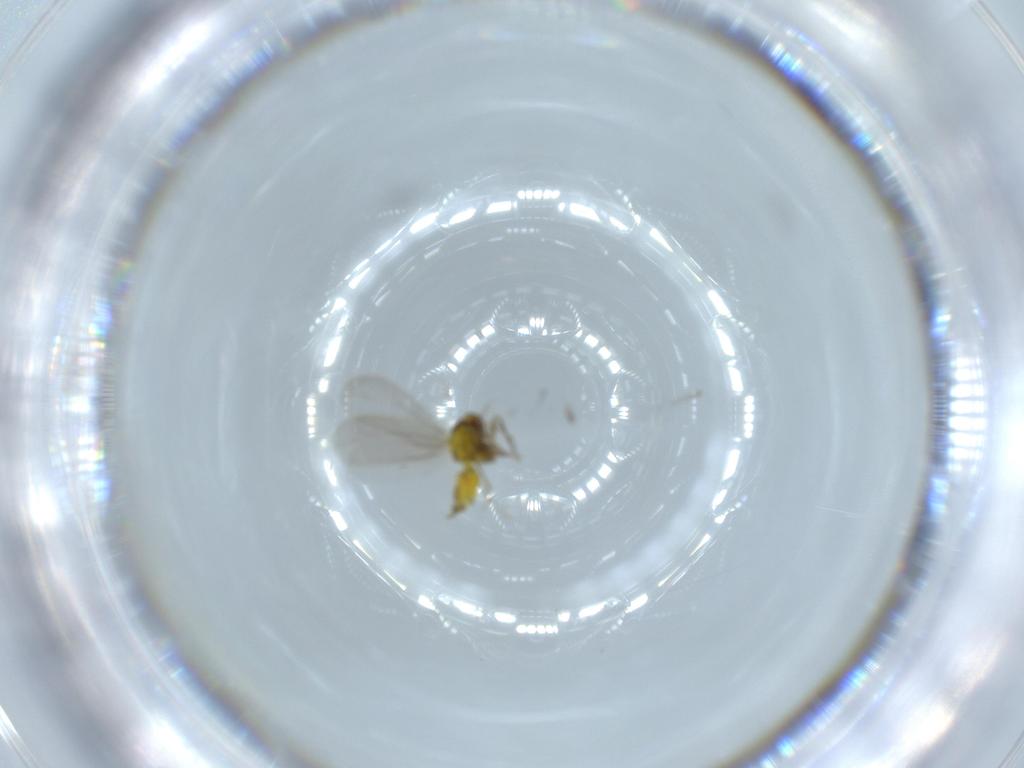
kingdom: Animalia
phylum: Arthropoda
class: Insecta
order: Hemiptera
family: Aleyrodidae
